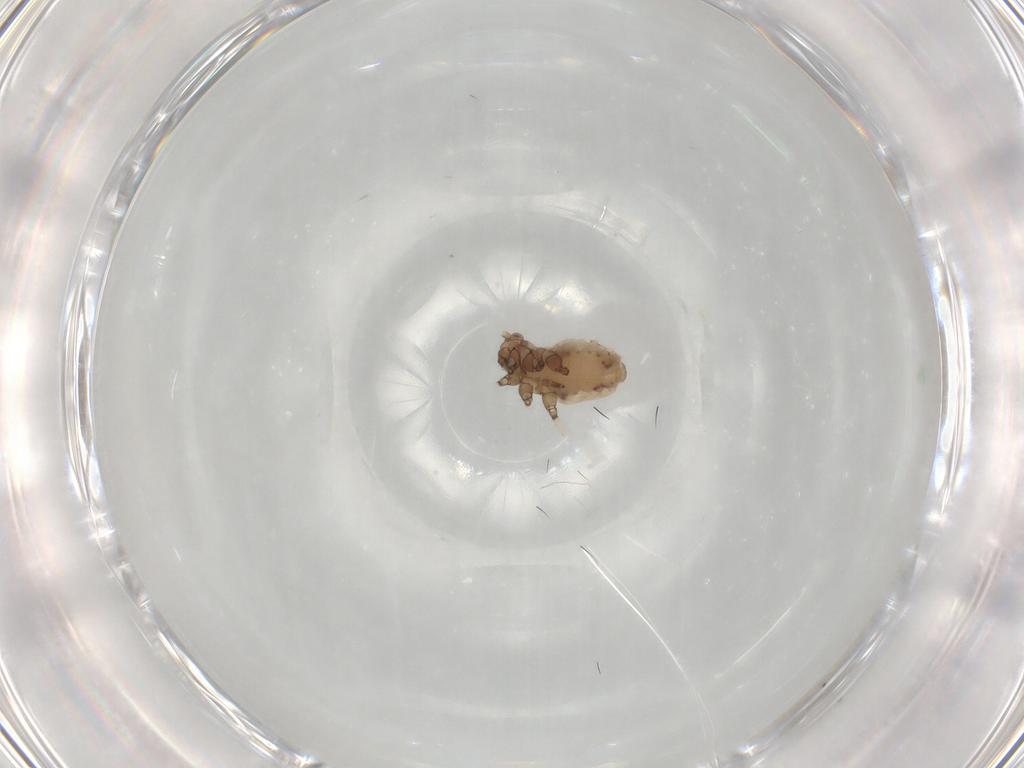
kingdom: Animalia
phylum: Arthropoda
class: Insecta
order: Hemiptera
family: Aphididae
